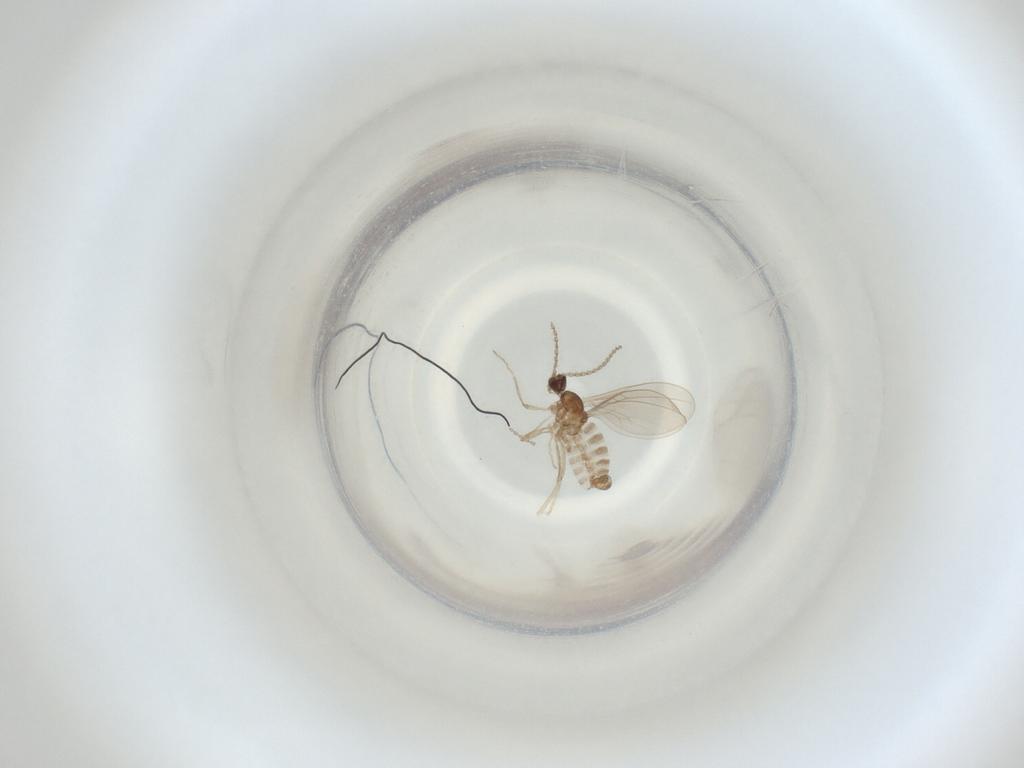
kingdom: Animalia
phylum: Arthropoda
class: Insecta
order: Diptera
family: Cecidomyiidae
